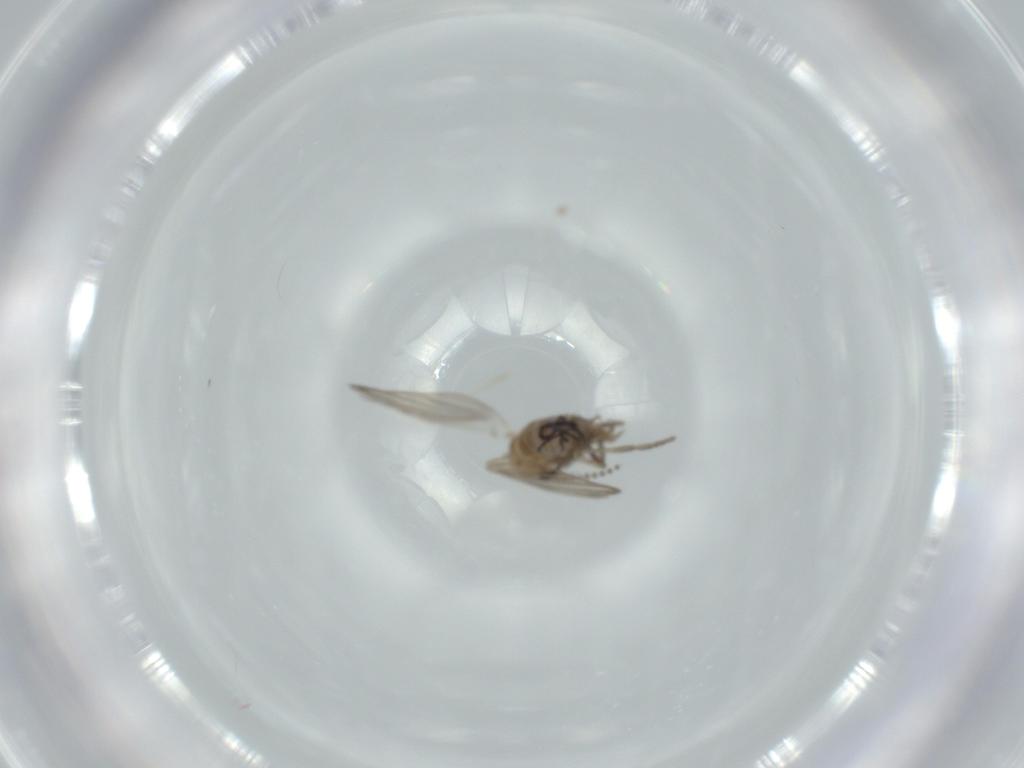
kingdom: Animalia
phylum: Arthropoda
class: Insecta
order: Diptera
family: Psychodidae
